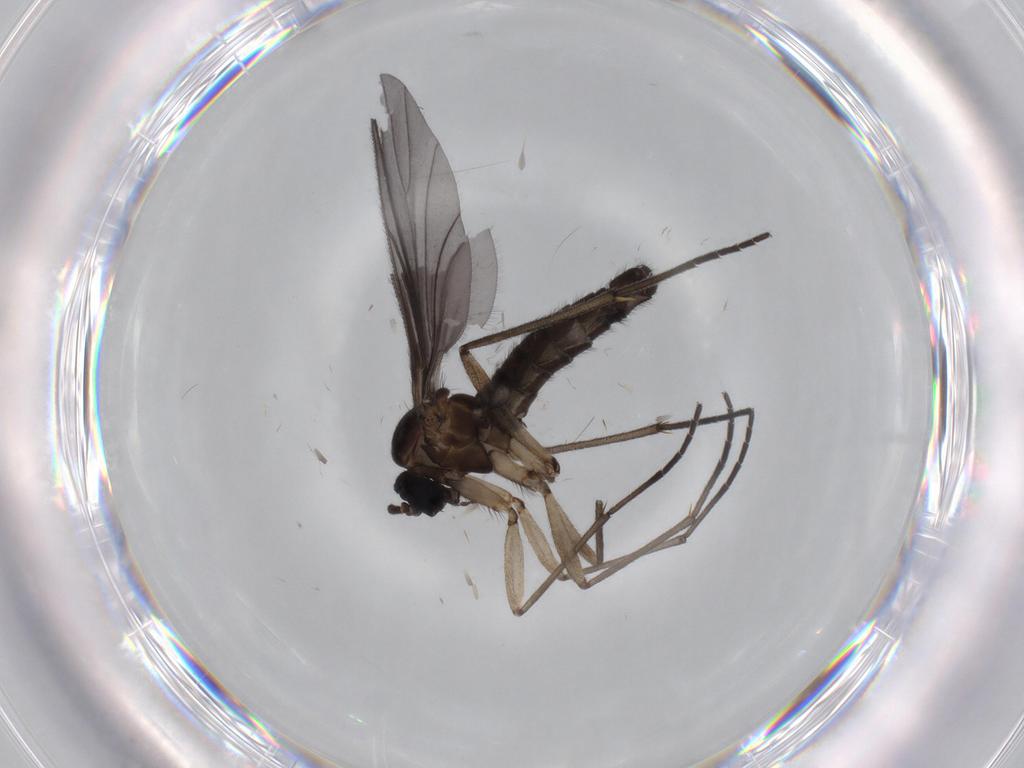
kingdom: Animalia
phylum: Arthropoda
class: Insecta
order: Diptera
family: Sciaridae
